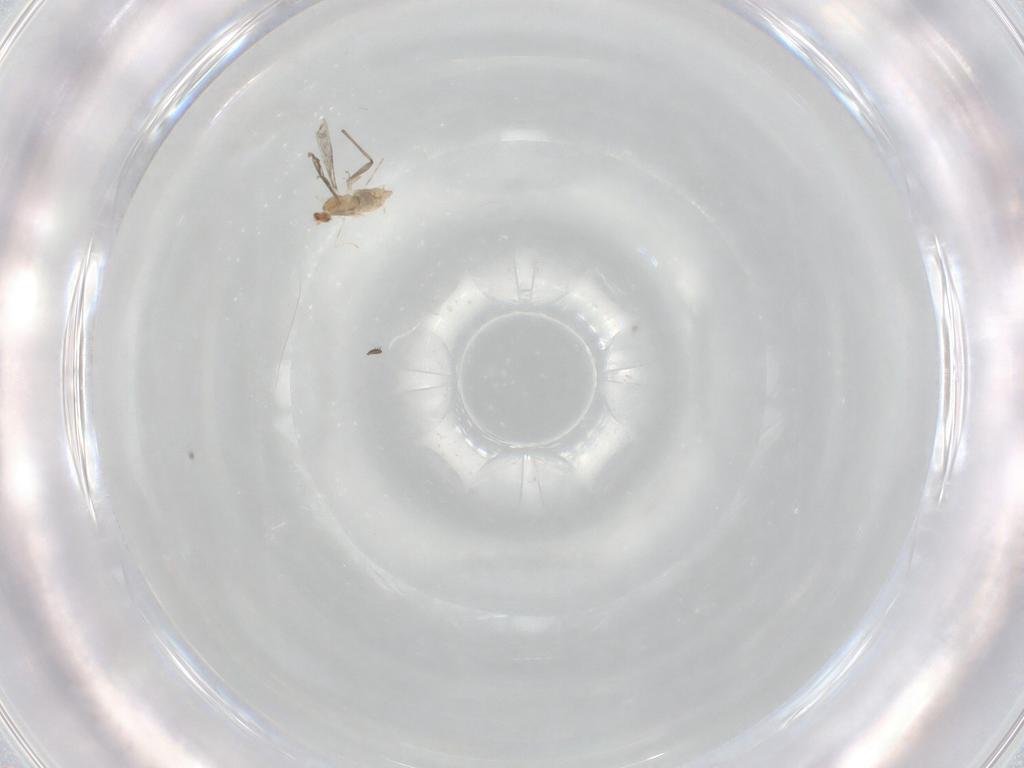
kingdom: Animalia
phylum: Arthropoda
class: Insecta
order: Diptera
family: Cecidomyiidae
